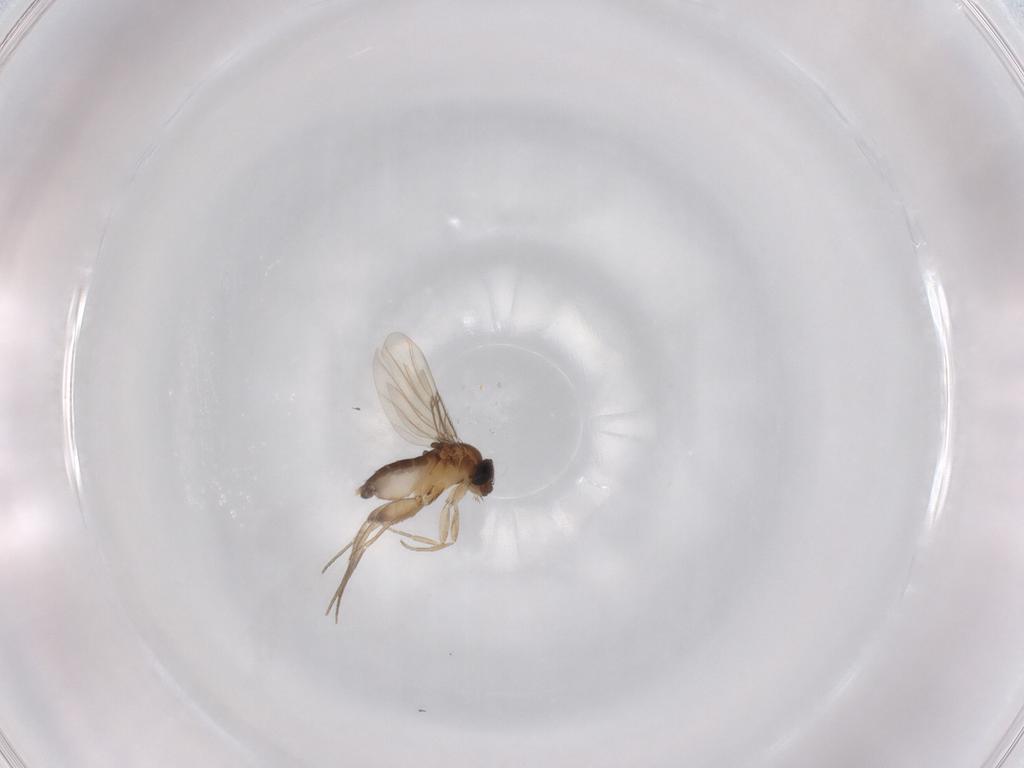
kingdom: Animalia
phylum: Arthropoda
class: Insecta
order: Diptera
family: Phoridae
